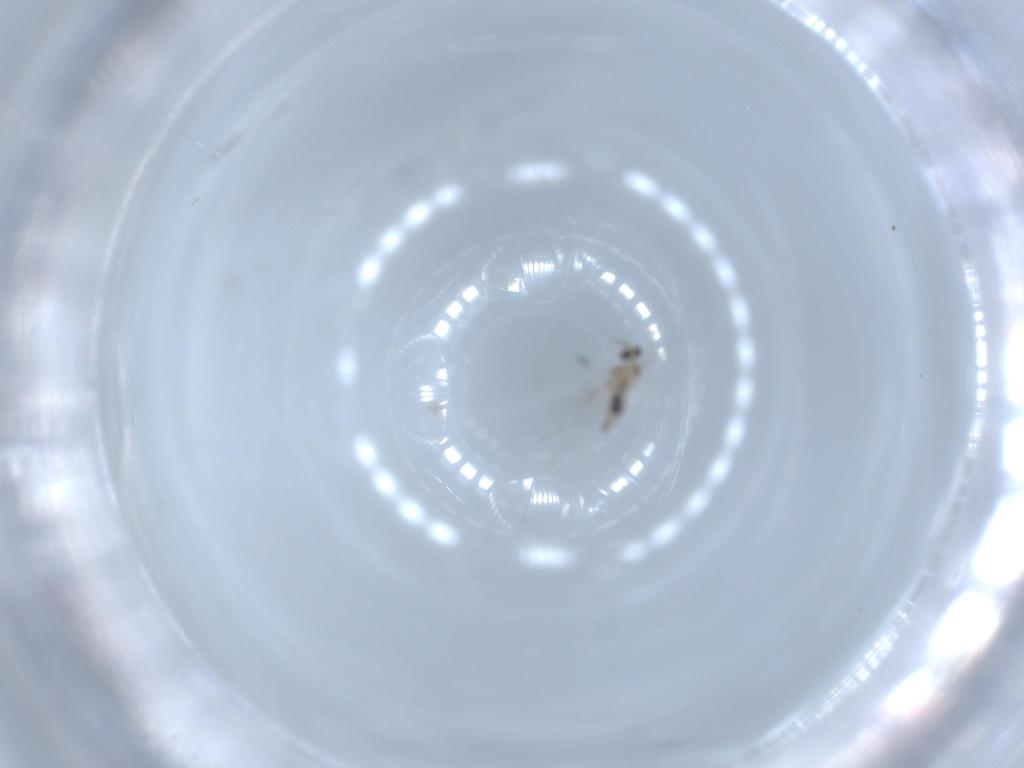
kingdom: Animalia
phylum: Arthropoda
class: Insecta
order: Diptera
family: Cecidomyiidae
